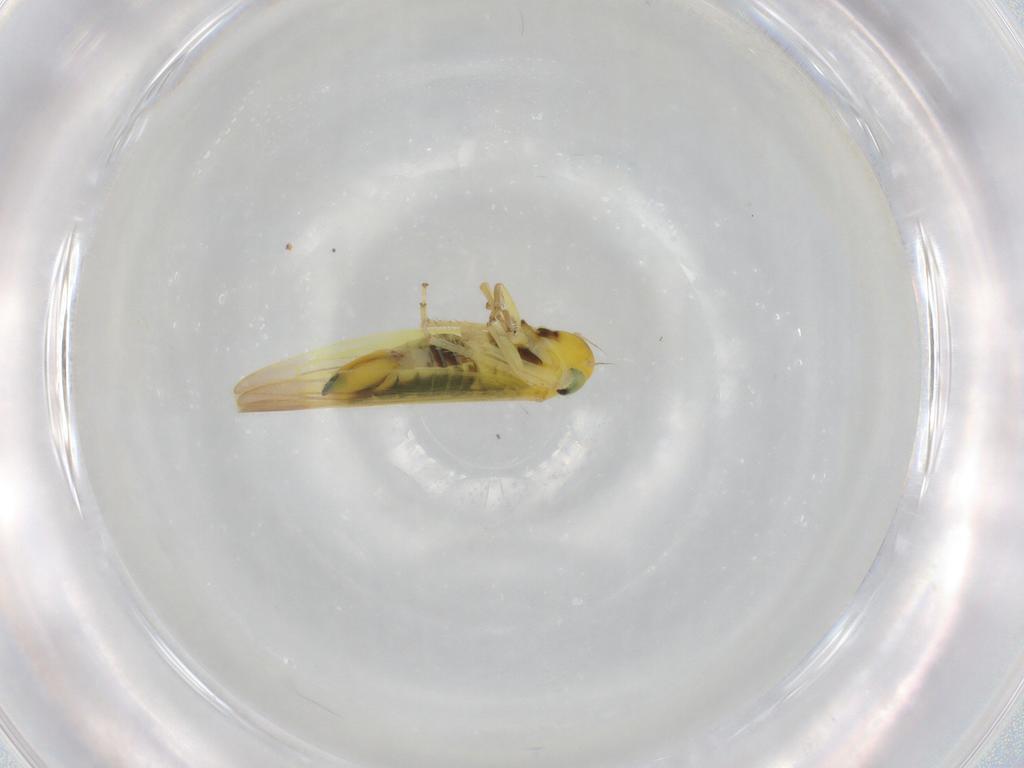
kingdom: Animalia
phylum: Arthropoda
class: Insecta
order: Hemiptera
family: Cicadellidae
